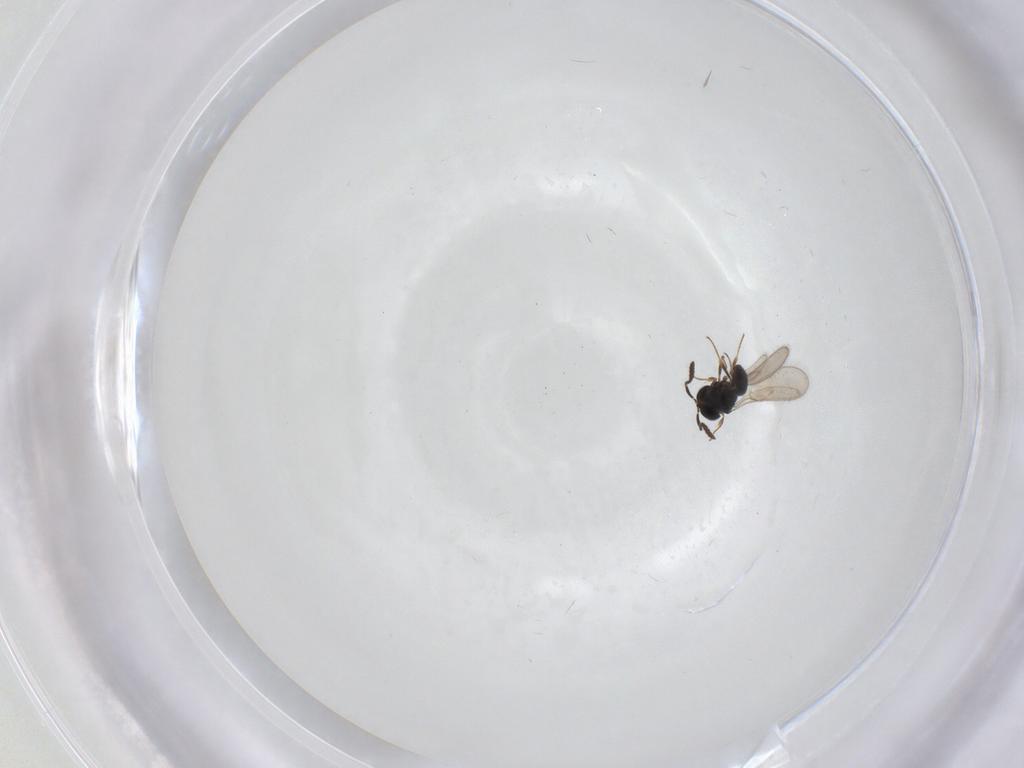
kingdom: Animalia
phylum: Arthropoda
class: Insecta
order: Hymenoptera
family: Scelionidae
